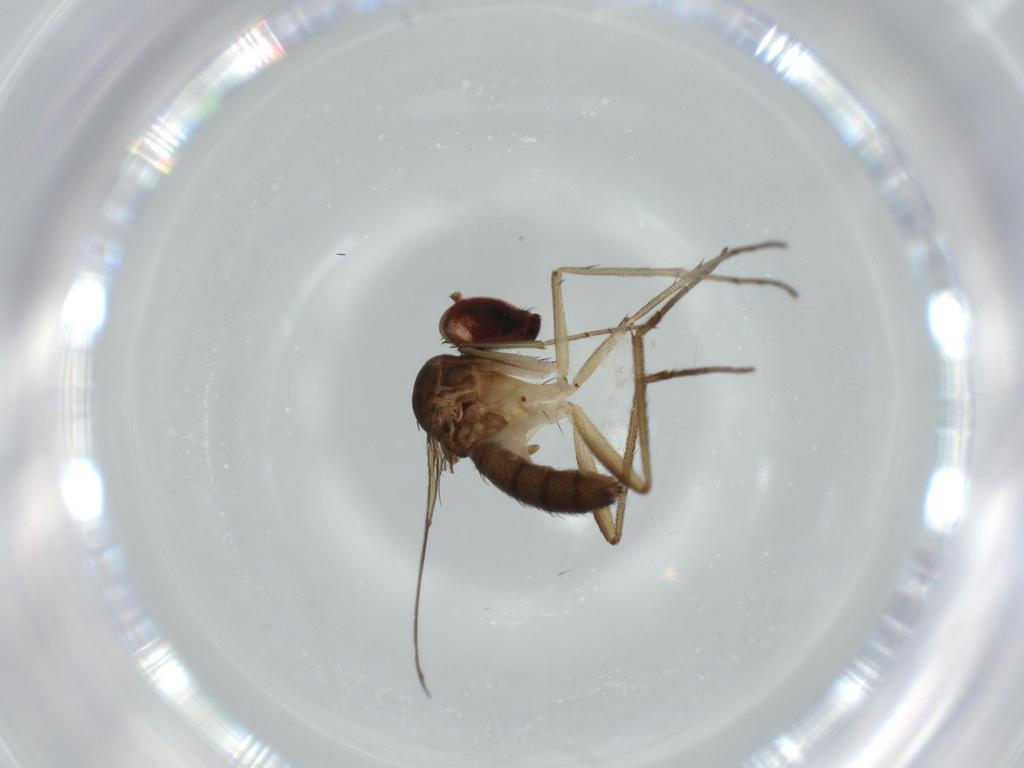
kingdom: Animalia
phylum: Arthropoda
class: Insecta
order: Diptera
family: Dolichopodidae
